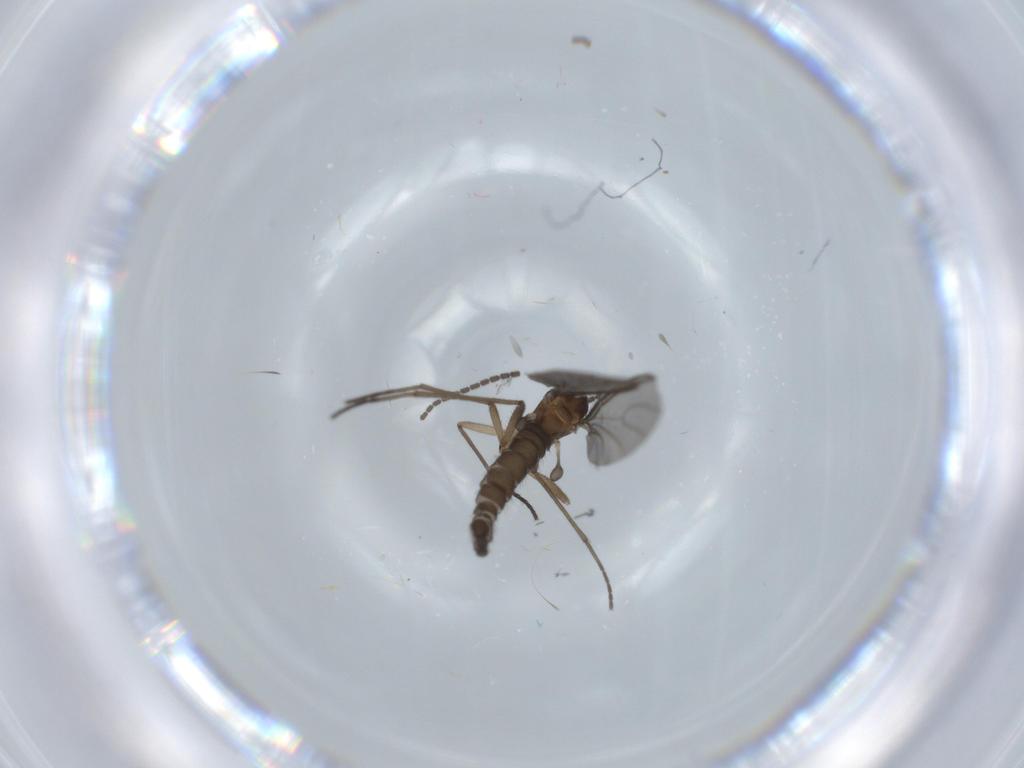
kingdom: Animalia
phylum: Arthropoda
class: Insecta
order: Diptera
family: Sciaridae
